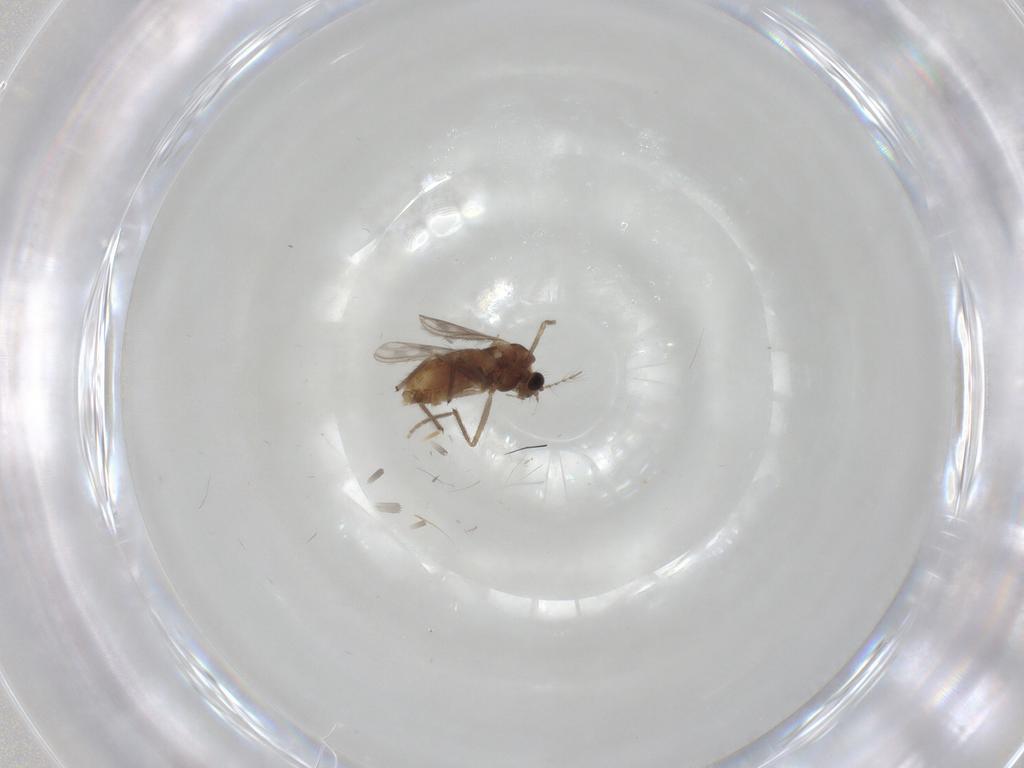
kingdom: Animalia
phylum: Arthropoda
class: Insecta
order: Diptera
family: Chironomidae
